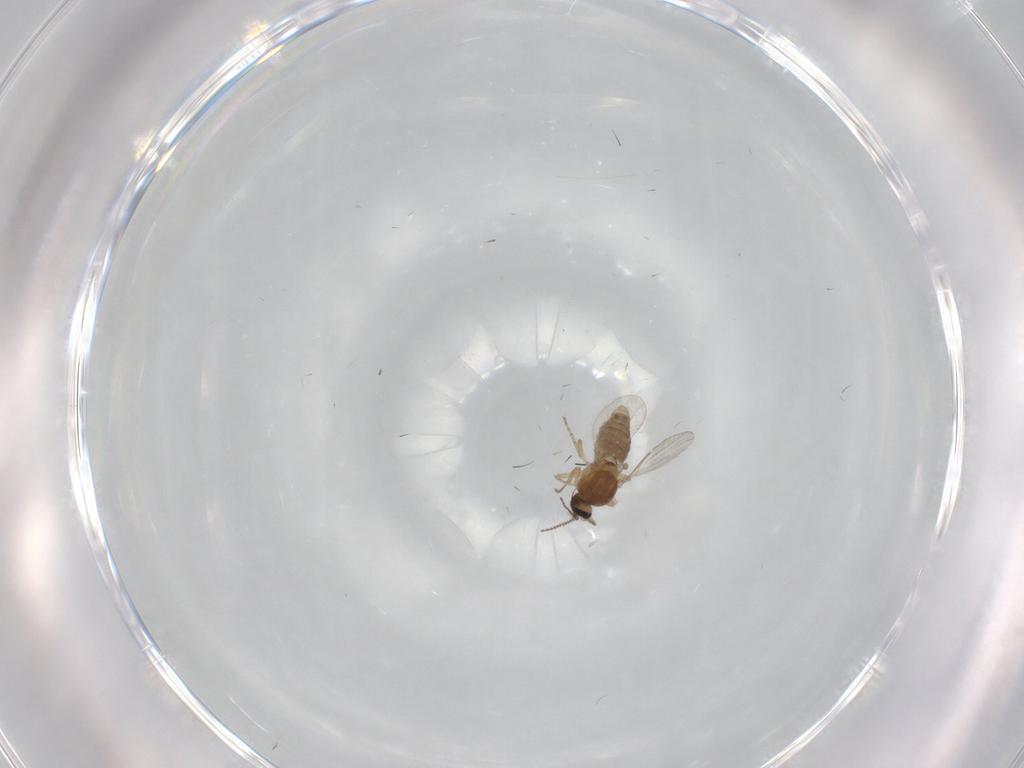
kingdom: Animalia
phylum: Arthropoda
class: Insecta
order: Diptera
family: Ceratopogonidae
